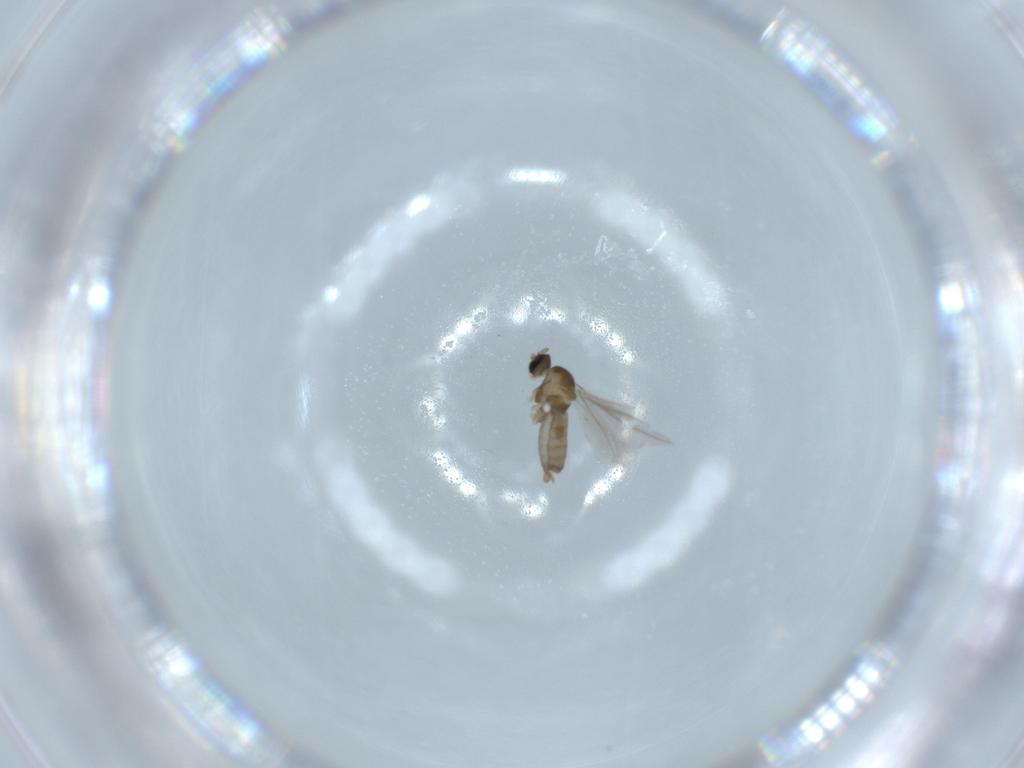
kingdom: Animalia
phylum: Arthropoda
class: Insecta
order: Diptera
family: Cecidomyiidae
